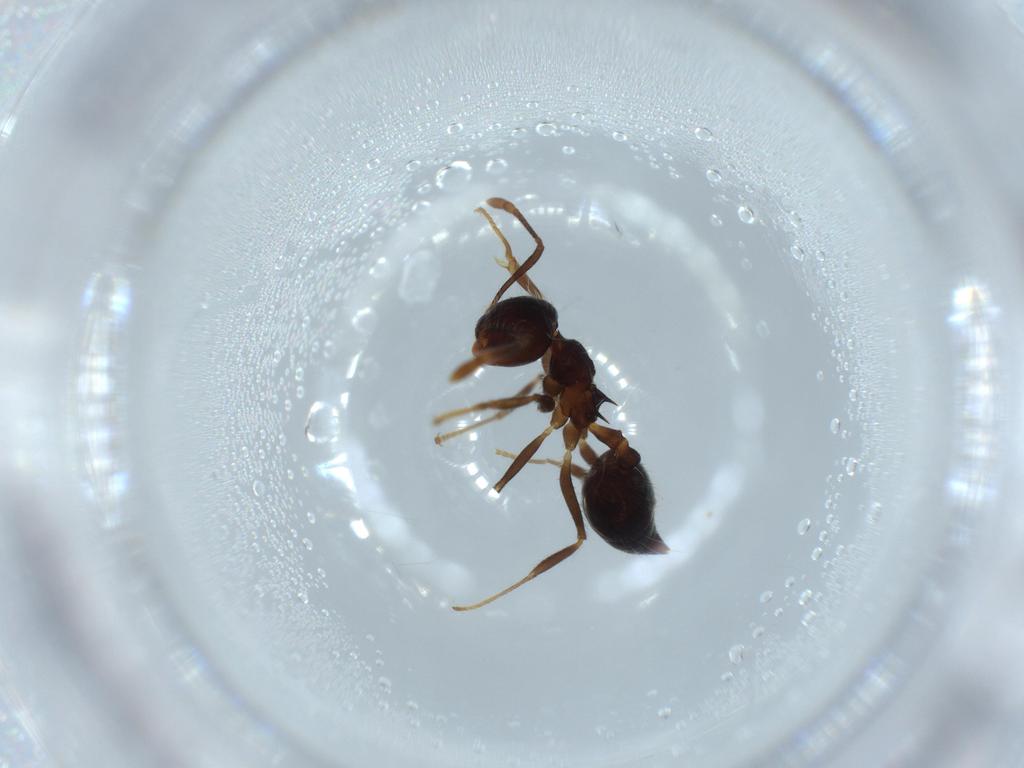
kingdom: Animalia
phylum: Arthropoda
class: Insecta
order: Hymenoptera
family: Formicidae
